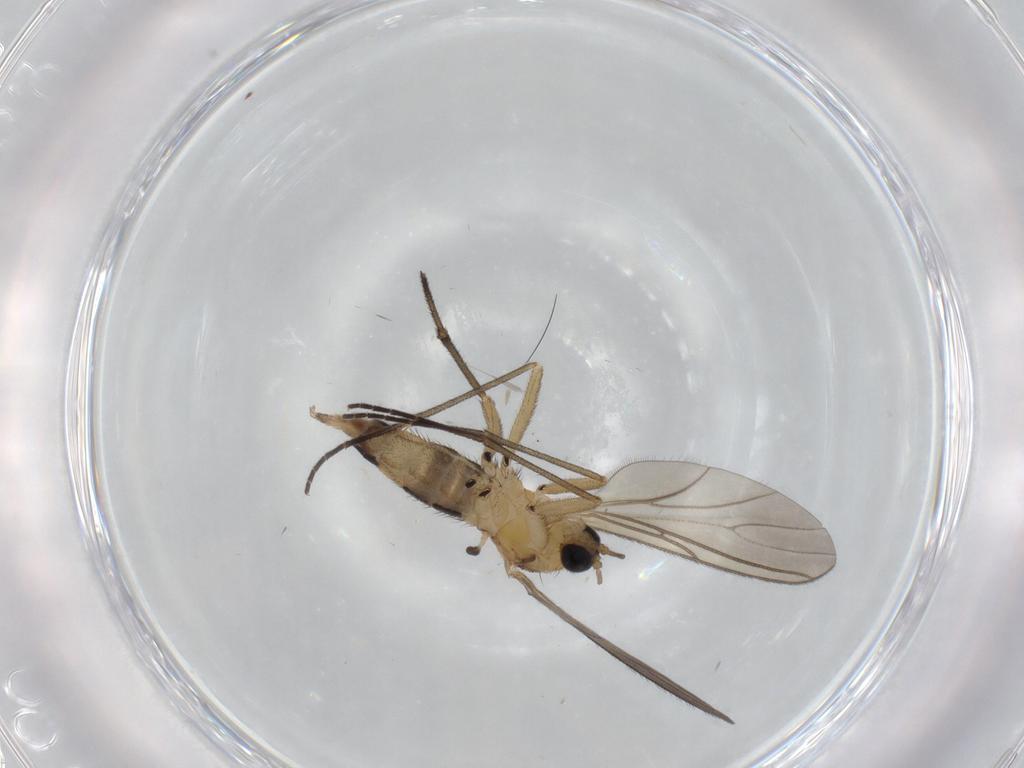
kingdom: Animalia
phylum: Arthropoda
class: Insecta
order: Diptera
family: Sciaridae
